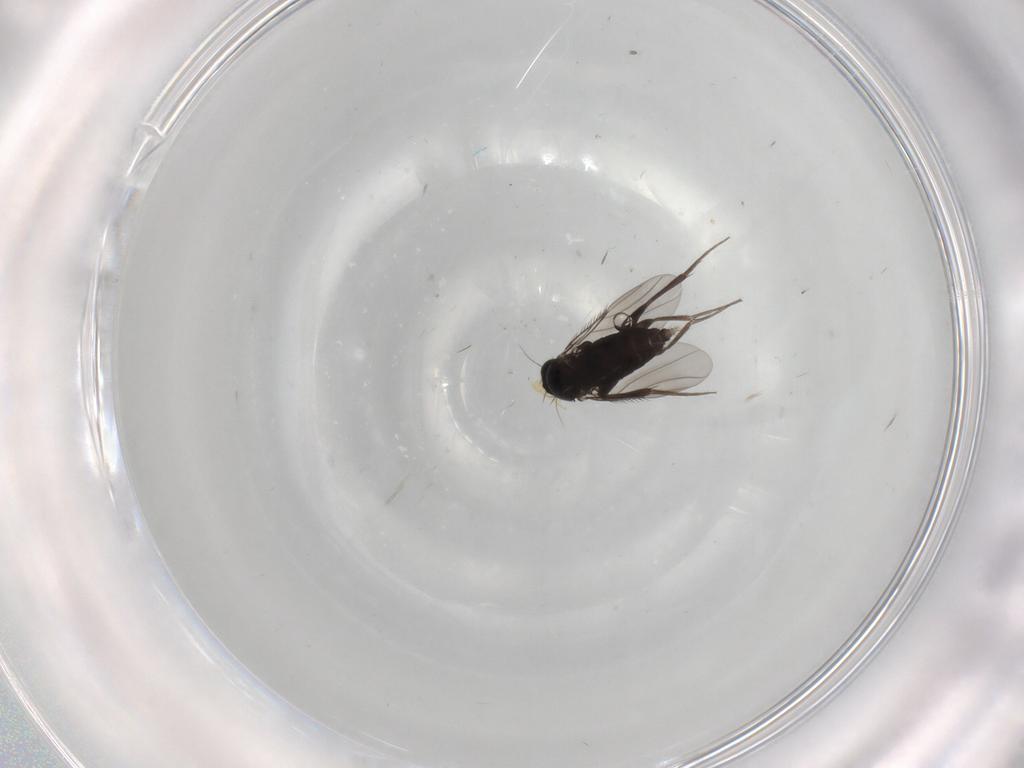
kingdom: Animalia
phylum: Arthropoda
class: Insecta
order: Diptera
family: Phoridae
